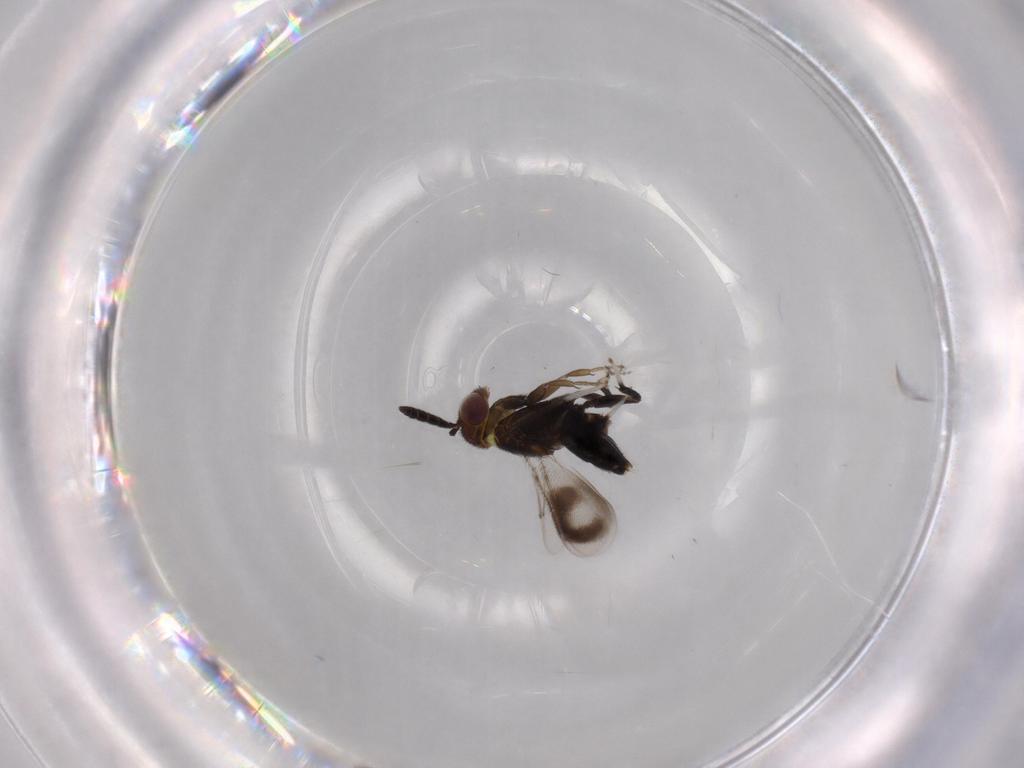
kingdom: Animalia
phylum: Arthropoda
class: Insecta
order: Hymenoptera
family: Aphelinidae
